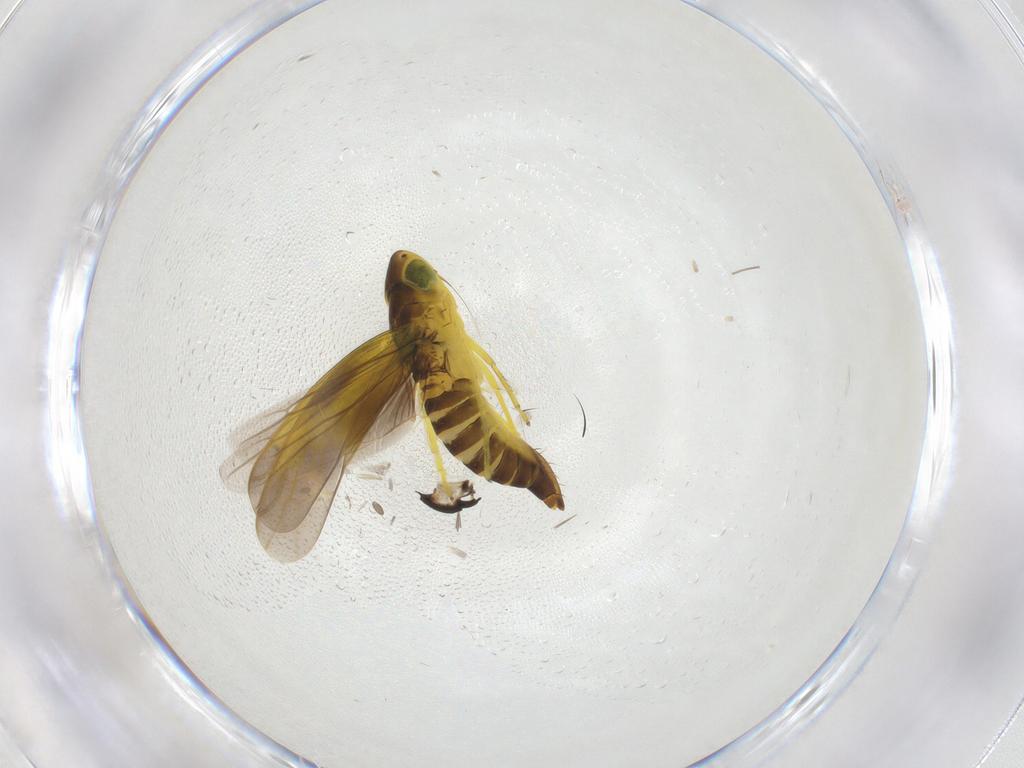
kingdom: Animalia
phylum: Arthropoda
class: Insecta
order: Hemiptera
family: Cicadellidae
